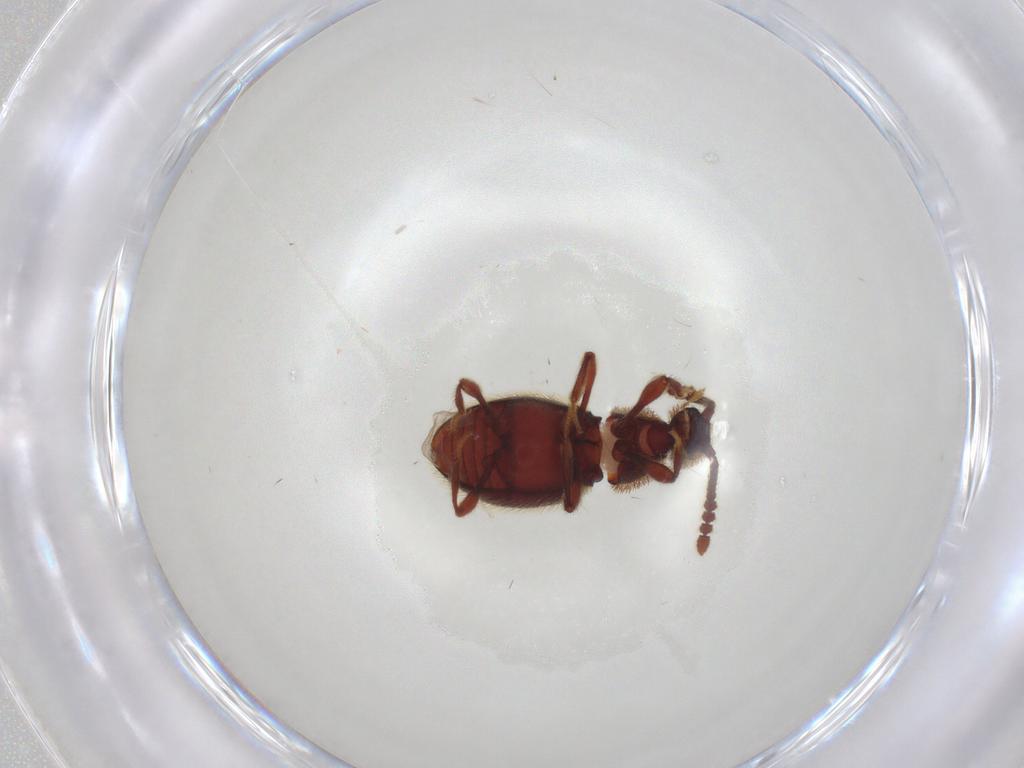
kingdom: Animalia
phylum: Arthropoda
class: Insecta
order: Coleoptera
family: Staphylinidae
